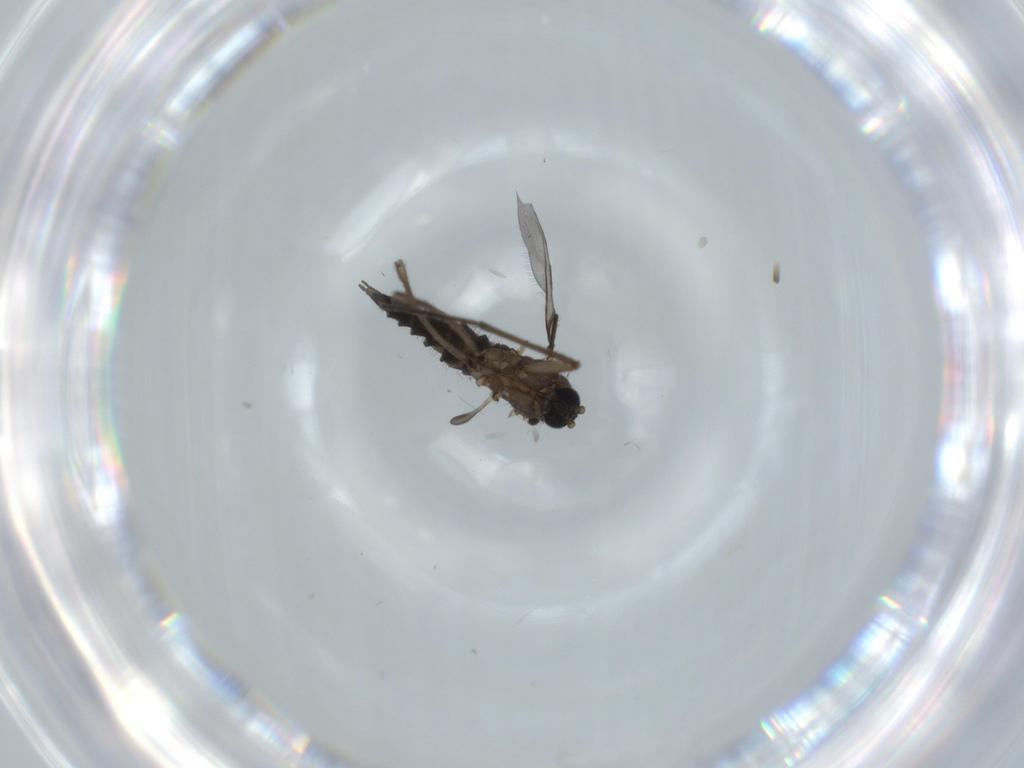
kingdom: Animalia
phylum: Arthropoda
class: Insecta
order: Diptera
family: Sciaridae
